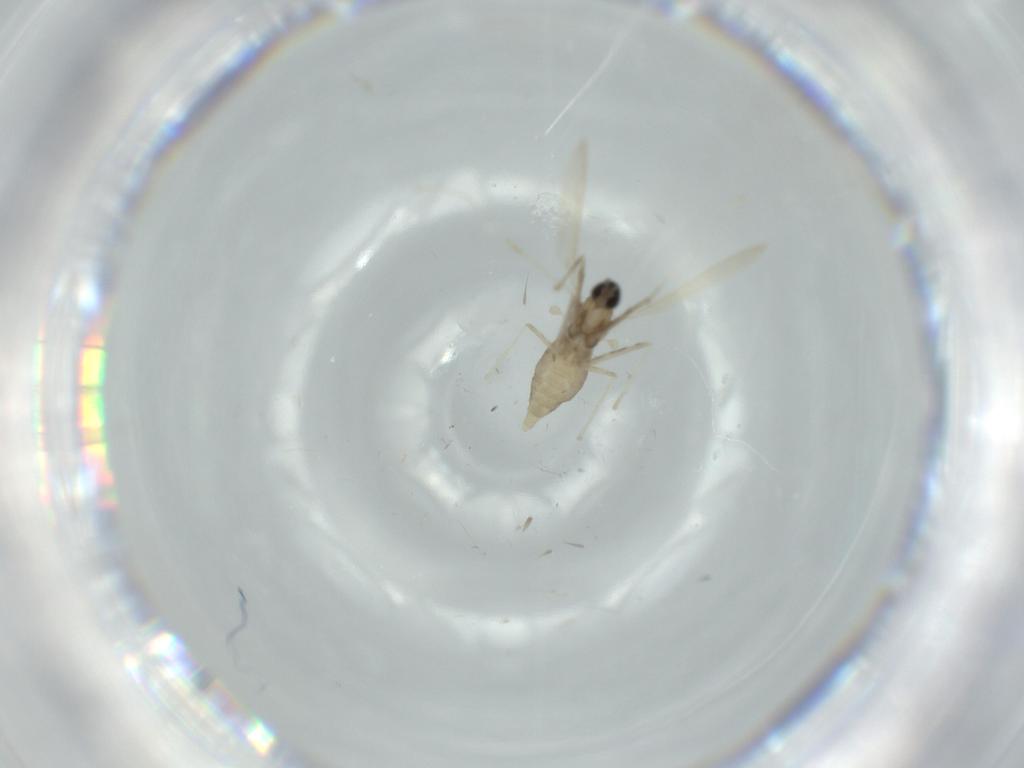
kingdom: Animalia
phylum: Arthropoda
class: Insecta
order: Diptera
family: Cecidomyiidae
